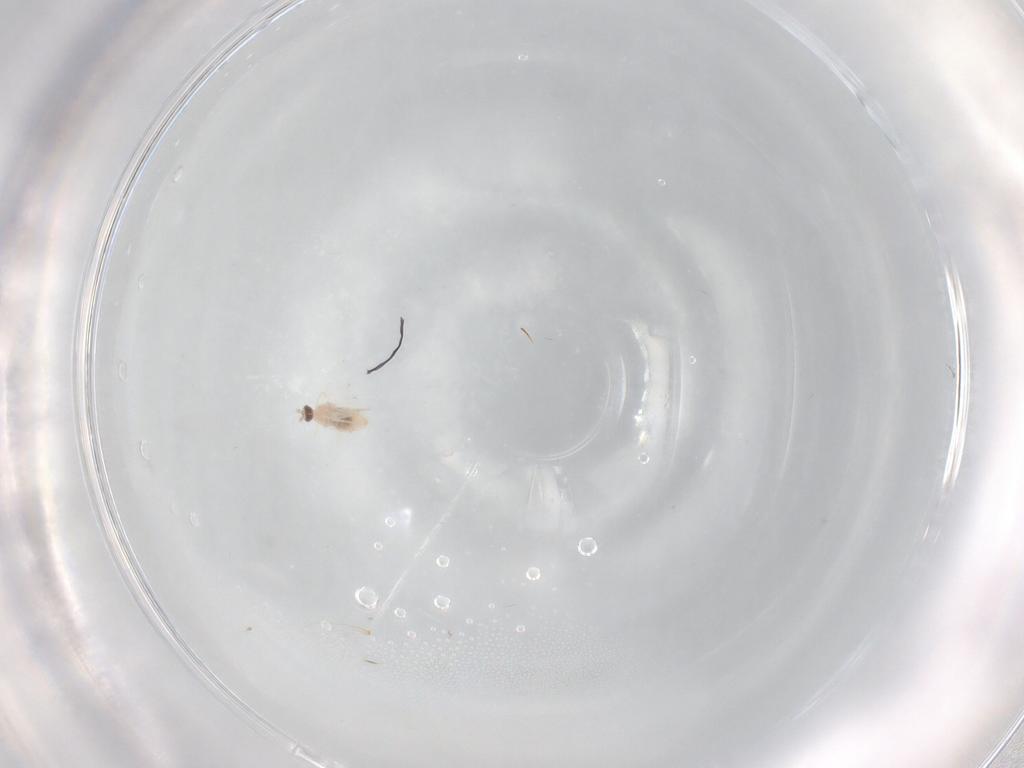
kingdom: Animalia
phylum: Arthropoda
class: Insecta
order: Diptera
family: Cecidomyiidae
